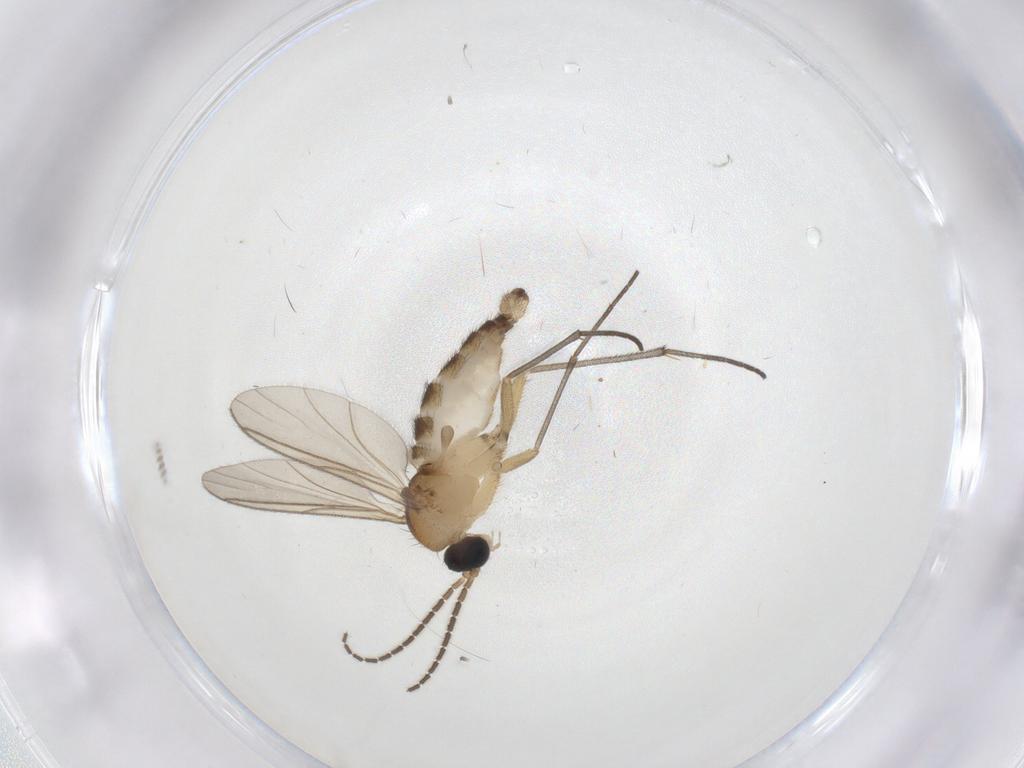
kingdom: Animalia
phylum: Arthropoda
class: Insecta
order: Diptera
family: Sciaridae
